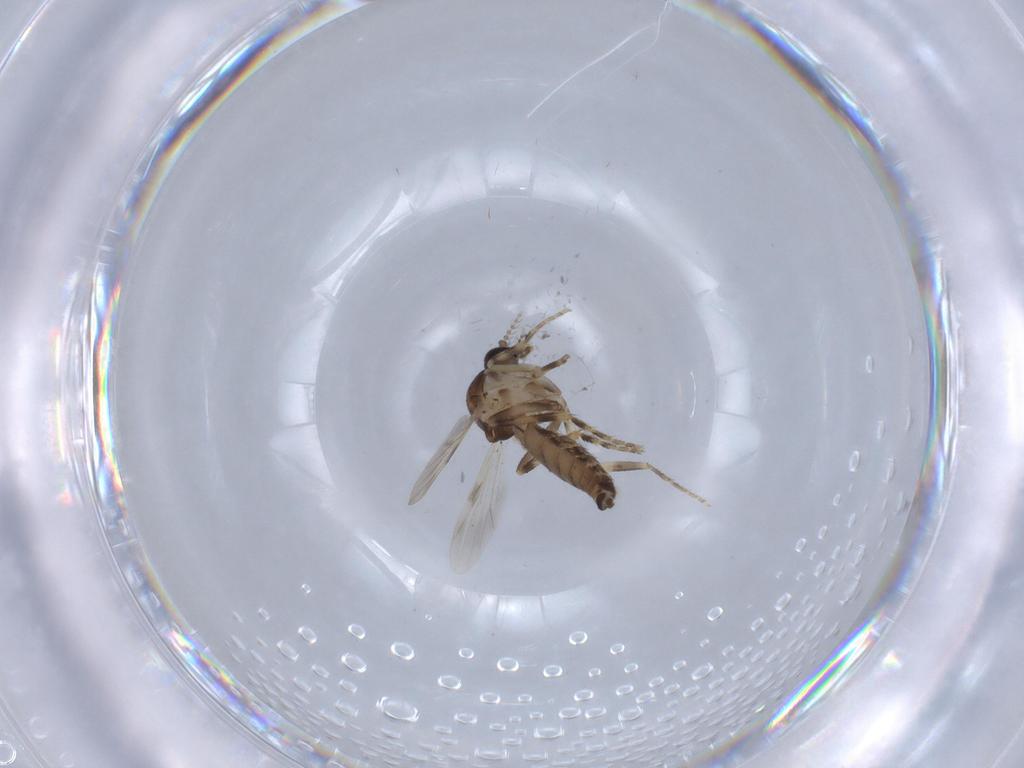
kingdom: Animalia
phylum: Arthropoda
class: Insecta
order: Diptera
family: Ceratopogonidae
